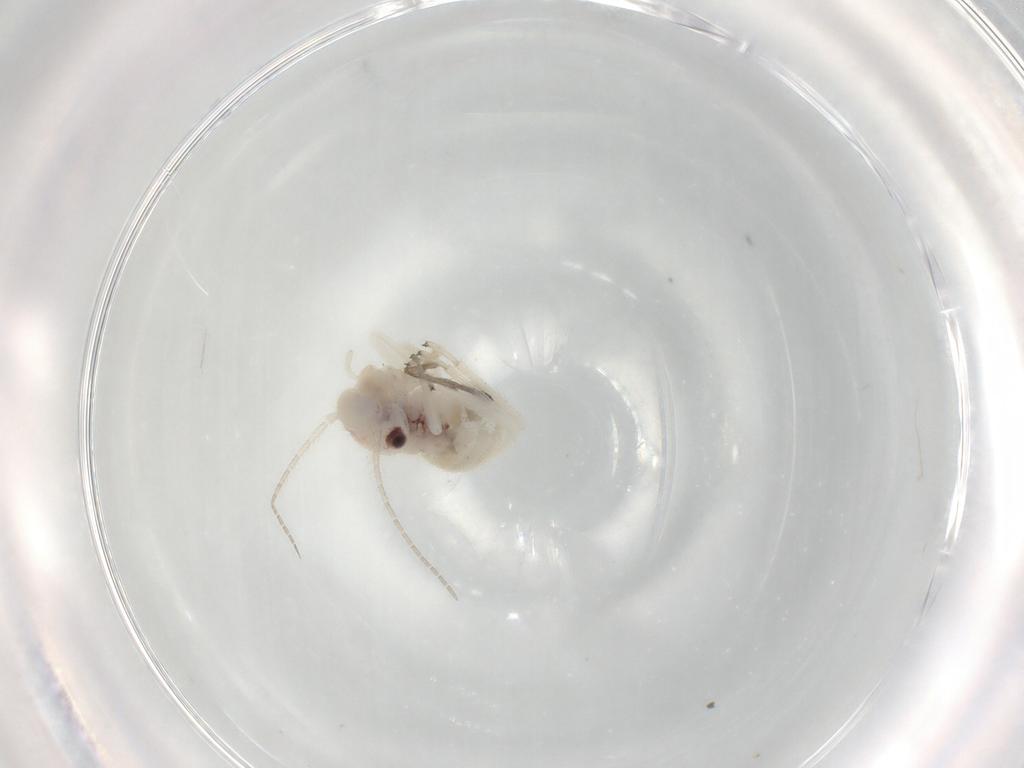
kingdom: Animalia
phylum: Arthropoda
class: Insecta
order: Psocodea
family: Amphipsocidae
